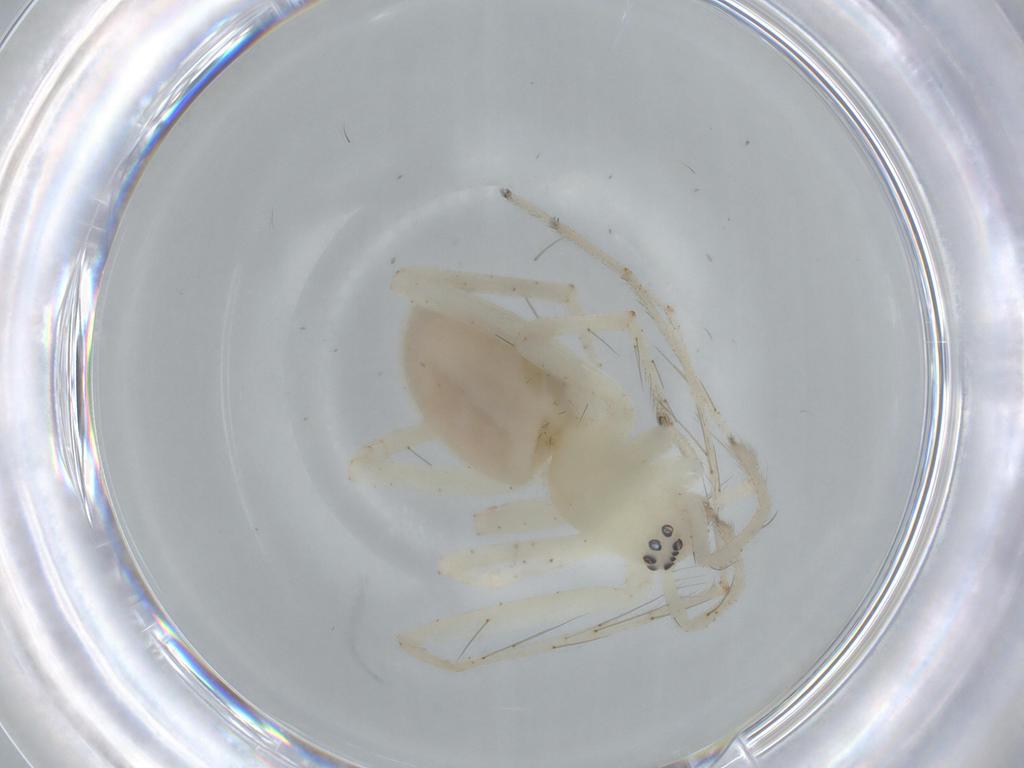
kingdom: Animalia
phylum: Arthropoda
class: Arachnida
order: Araneae
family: Anyphaenidae
